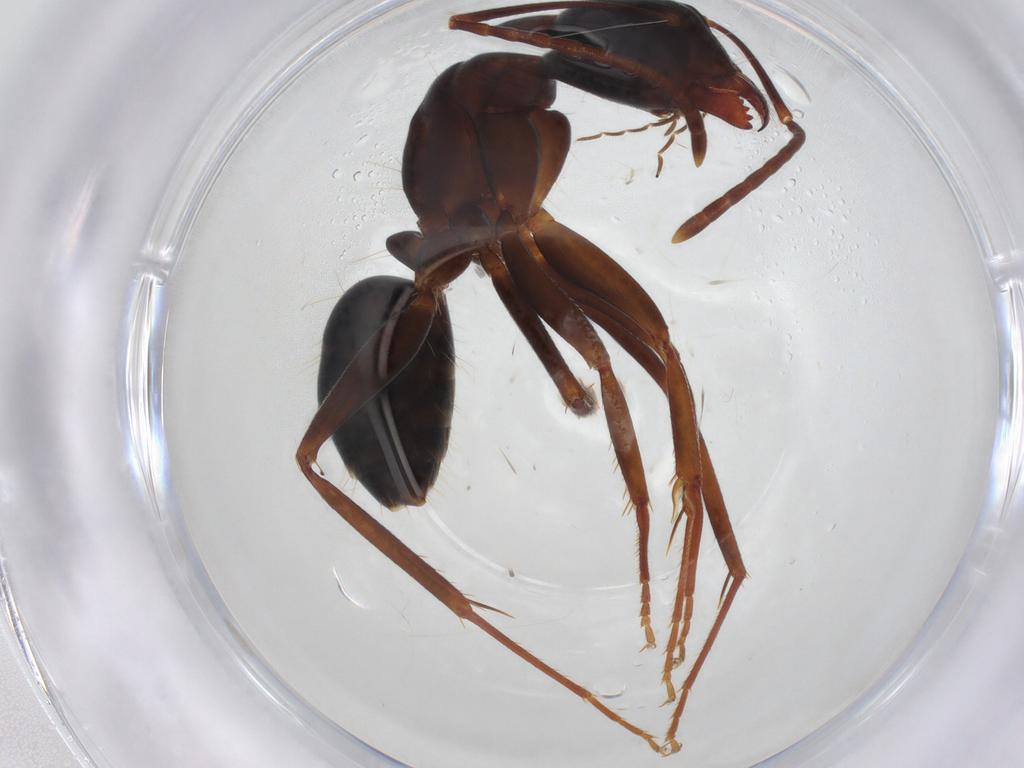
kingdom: Animalia
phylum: Arthropoda
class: Insecta
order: Hymenoptera
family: Formicidae
